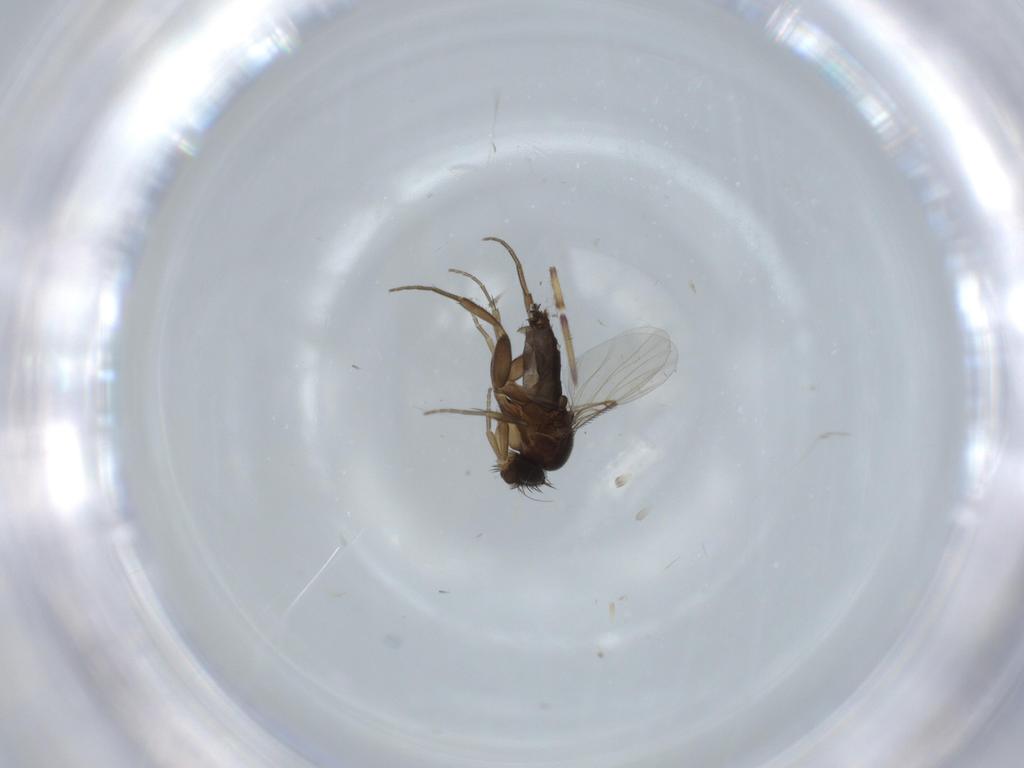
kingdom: Animalia
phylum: Arthropoda
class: Insecta
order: Diptera
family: Phoridae
